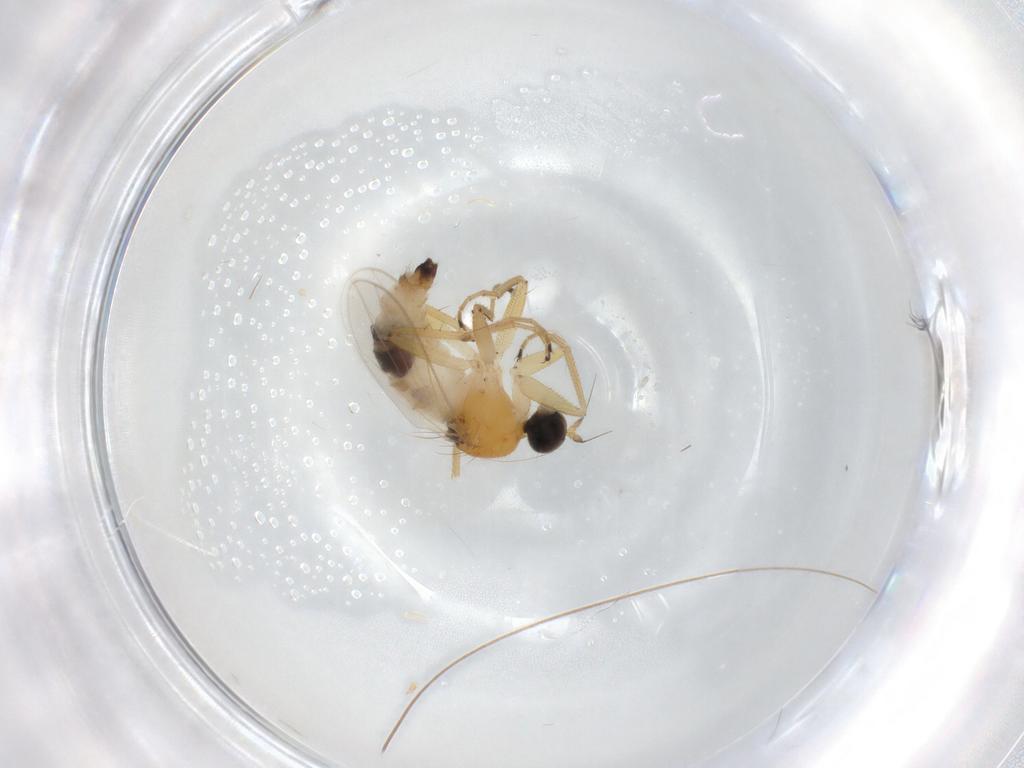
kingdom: Animalia
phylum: Arthropoda
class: Insecta
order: Diptera
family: Hybotidae
